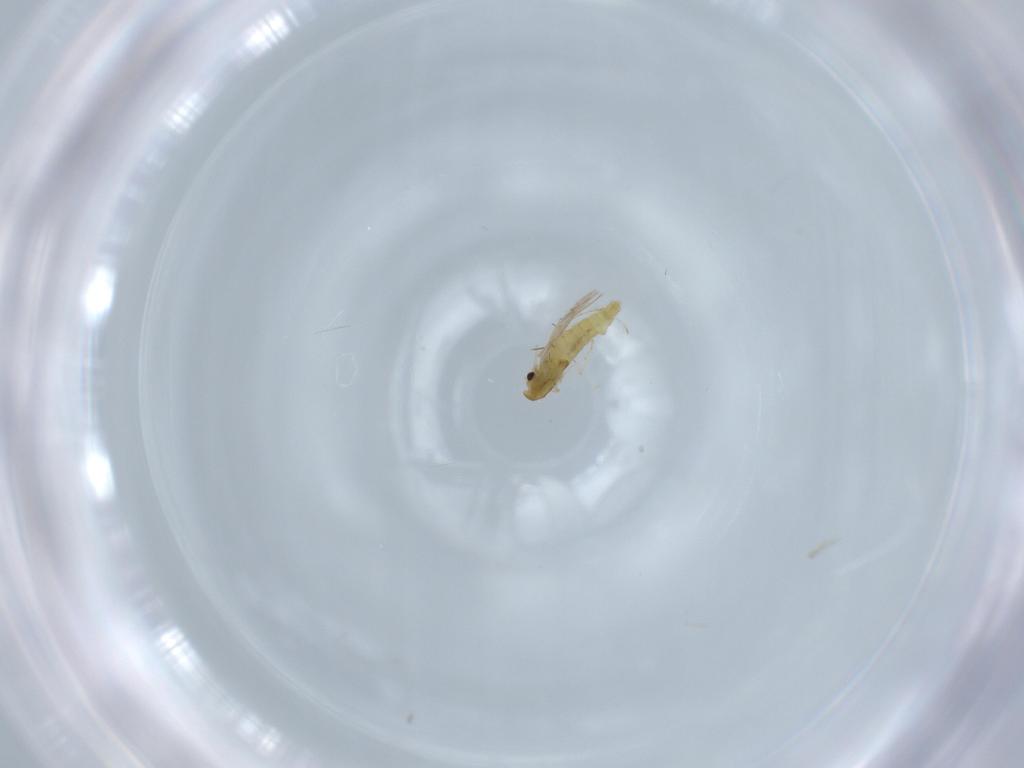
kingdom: Animalia
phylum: Arthropoda
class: Insecta
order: Diptera
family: Chironomidae
